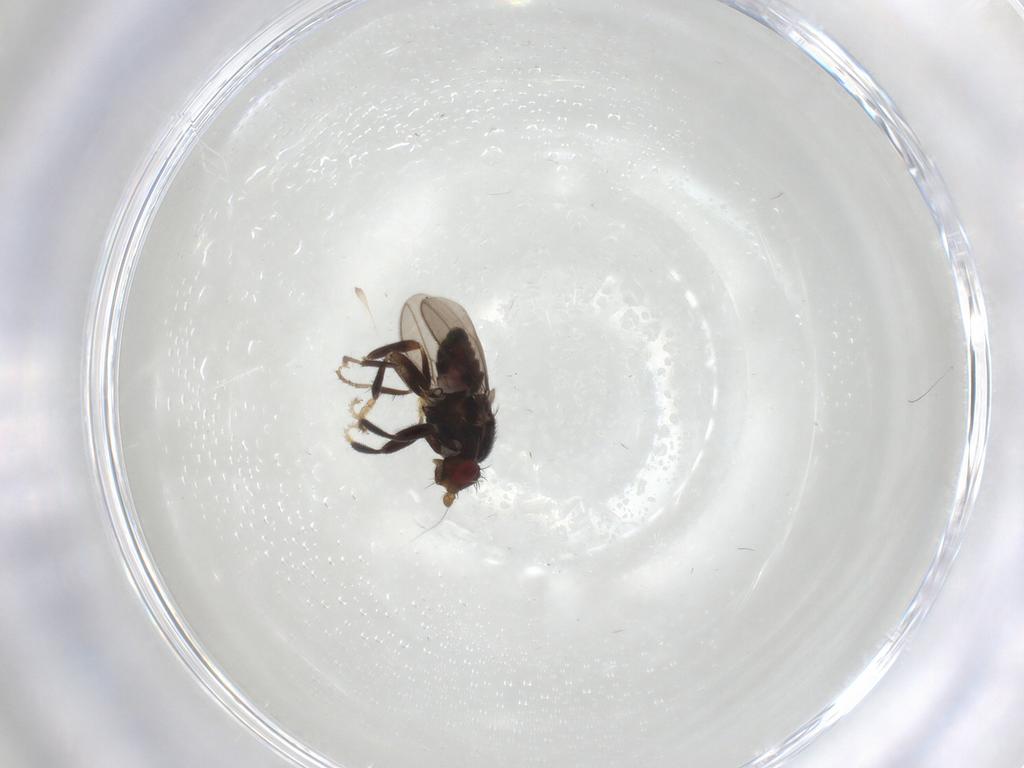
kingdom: Animalia
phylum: Arthropoda
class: Insecta
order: Diptera
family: Sphaeroceridae
